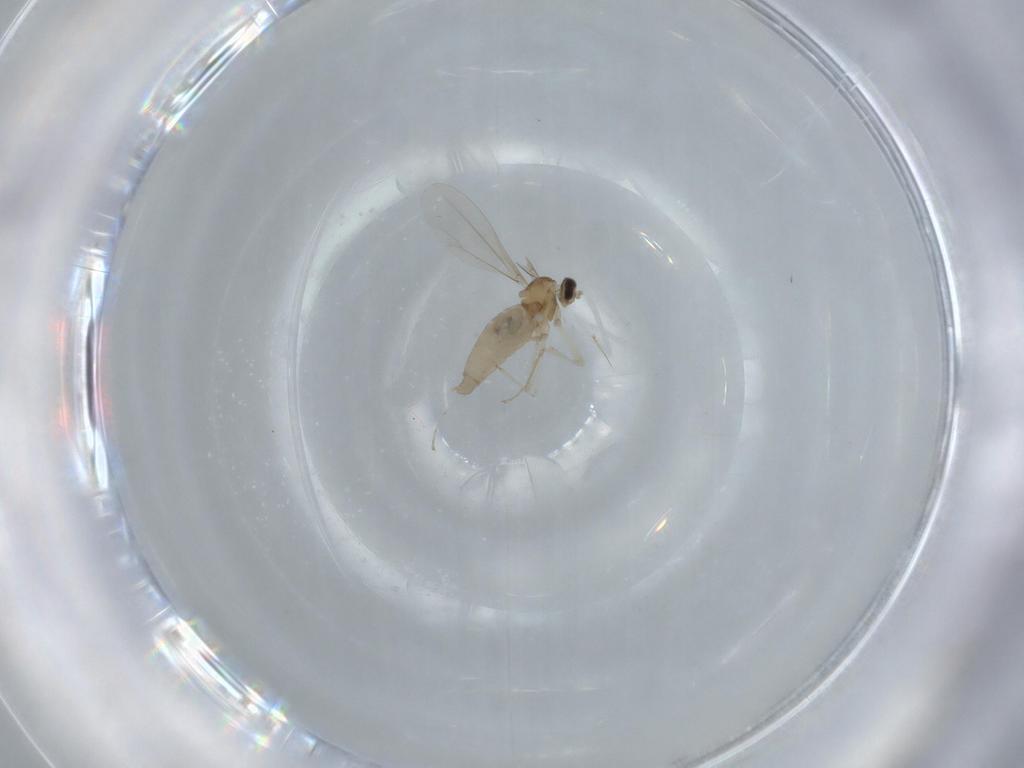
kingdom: Animalia
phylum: Arthropoda
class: Insecta
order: Diptera
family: Cecidomyiidae
